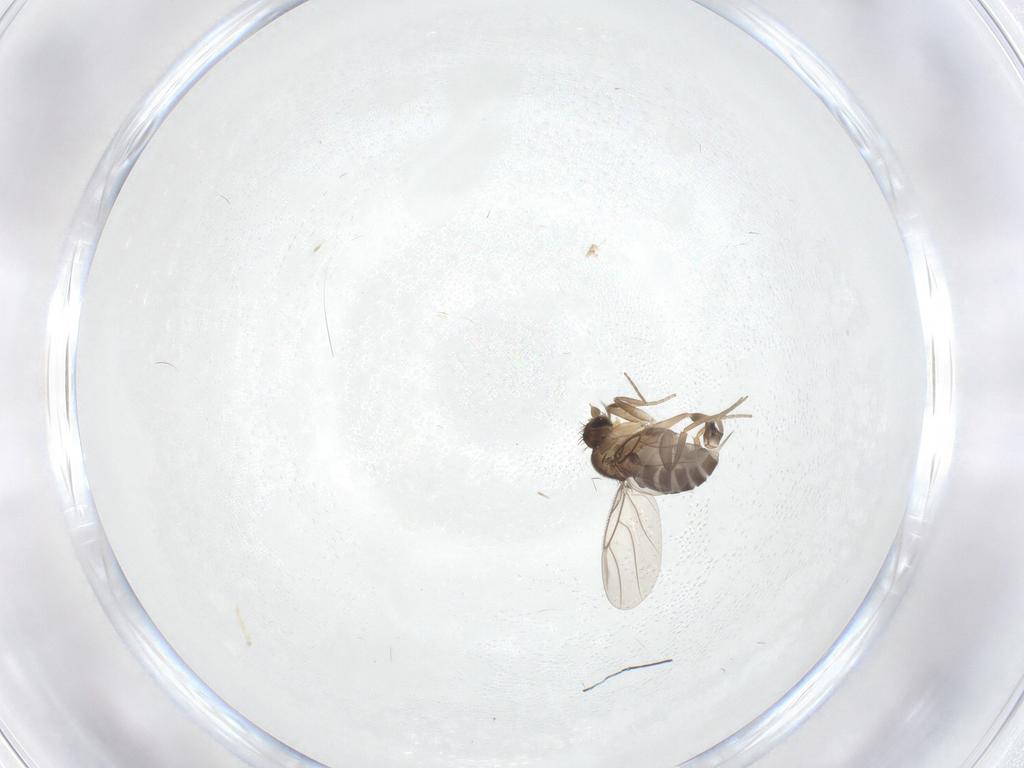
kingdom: Animalia
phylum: Arthropoda
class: Insecta
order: Diptera
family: Phoridae
